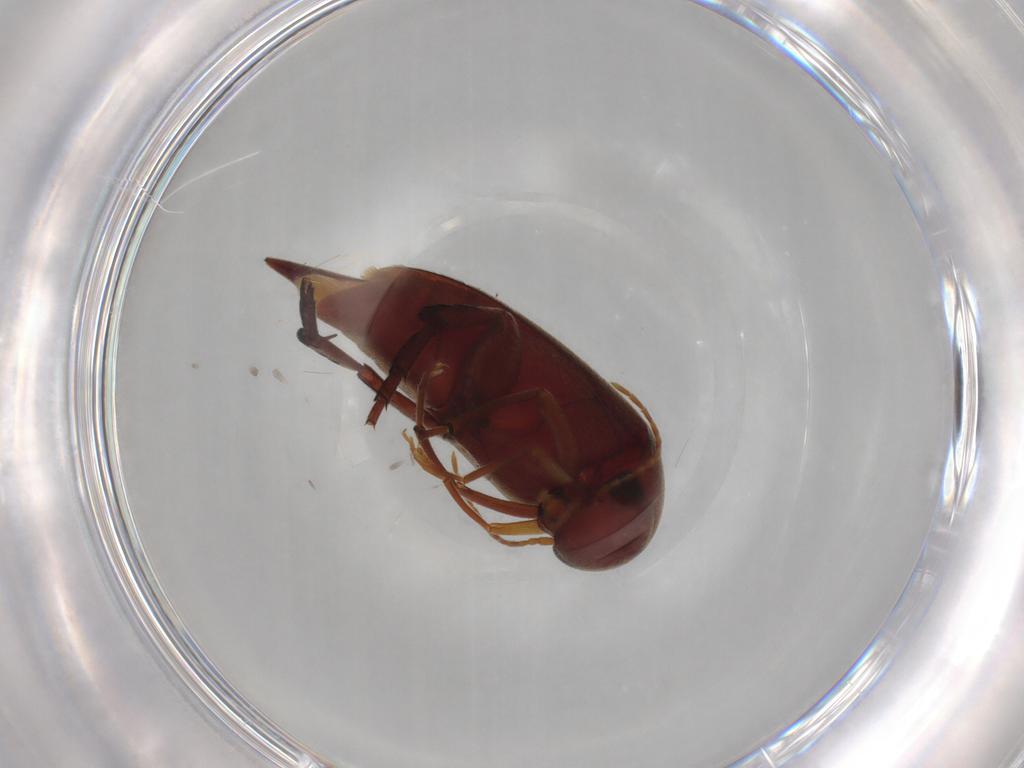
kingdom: Animalia
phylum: Arthropoda
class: Insecta
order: Coleoptera
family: Mordellidae
